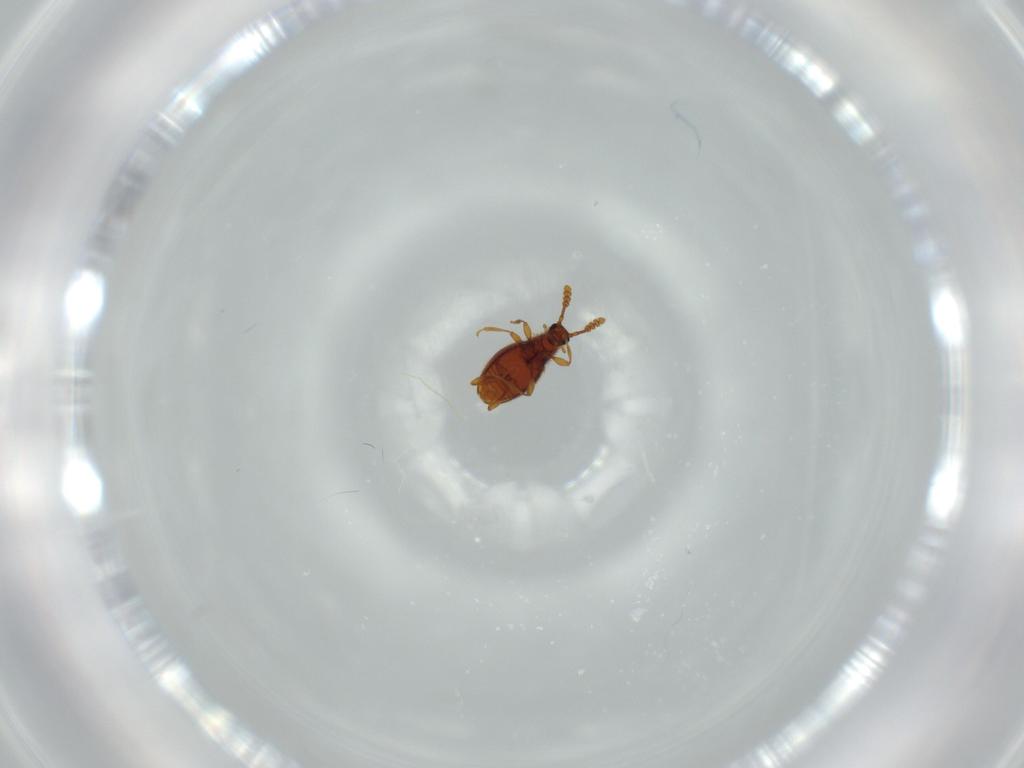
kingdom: Animalia
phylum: Arthropoda
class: Insecta
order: Coleoptera
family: Staphylinidae
